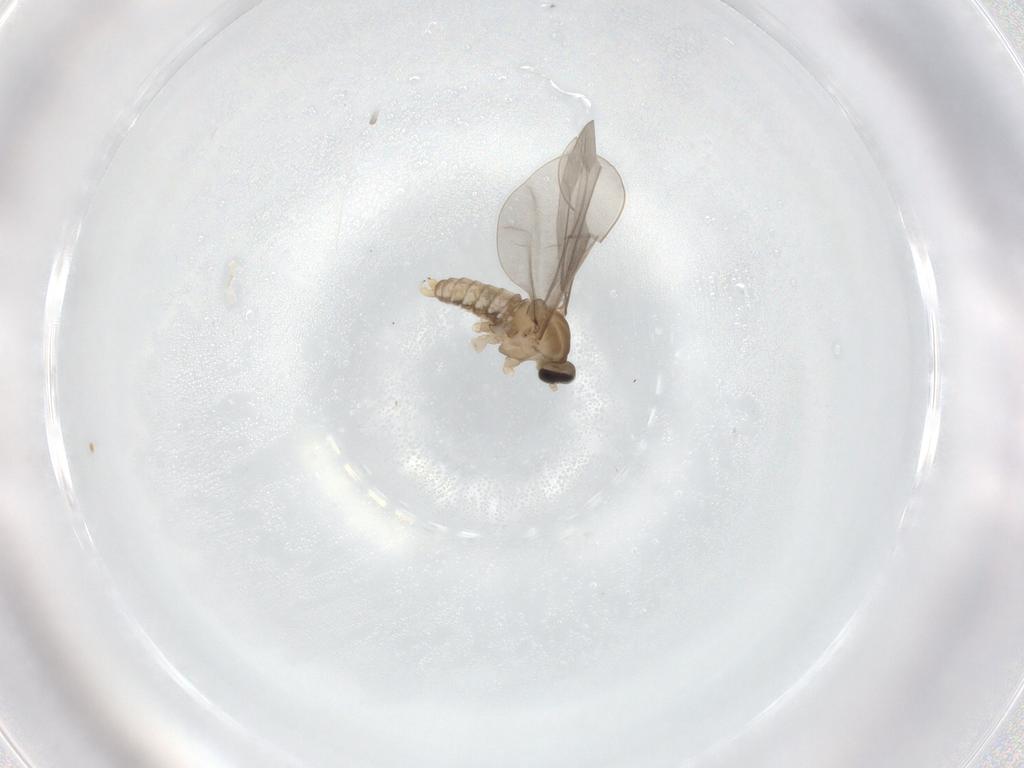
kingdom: Animalia
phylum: Arthropoda
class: Insecta
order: Diptera
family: Cecidomyiidae
